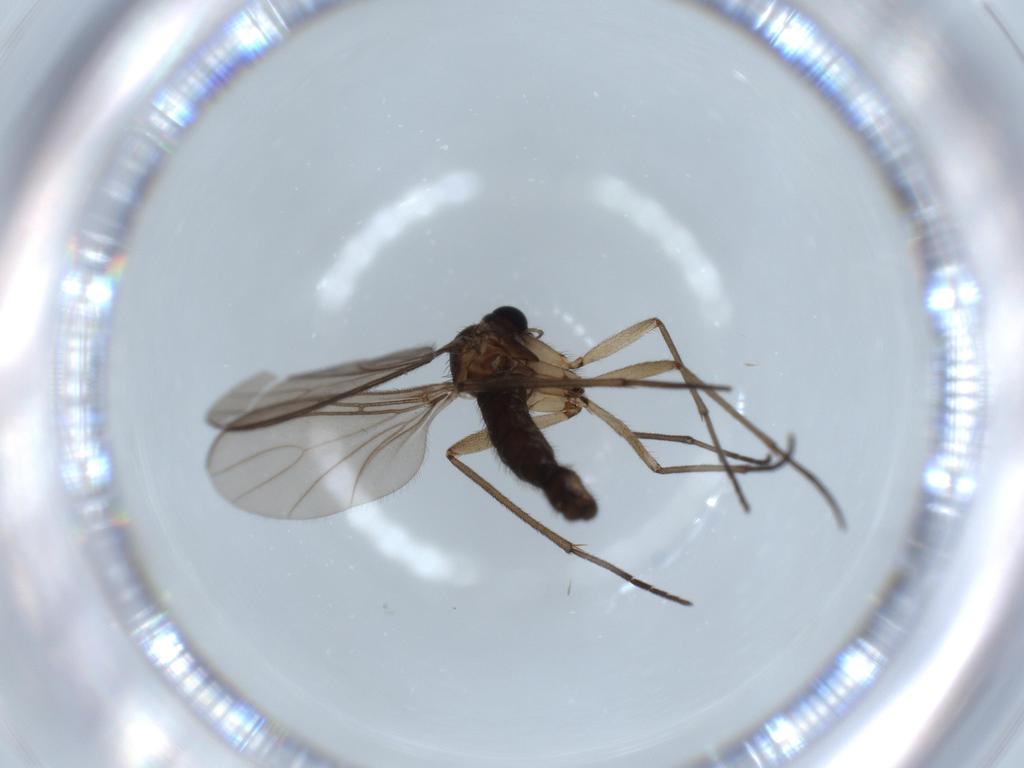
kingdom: Animalia
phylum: Arthropoda
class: Insecta
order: Diptera
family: Sciaridae
